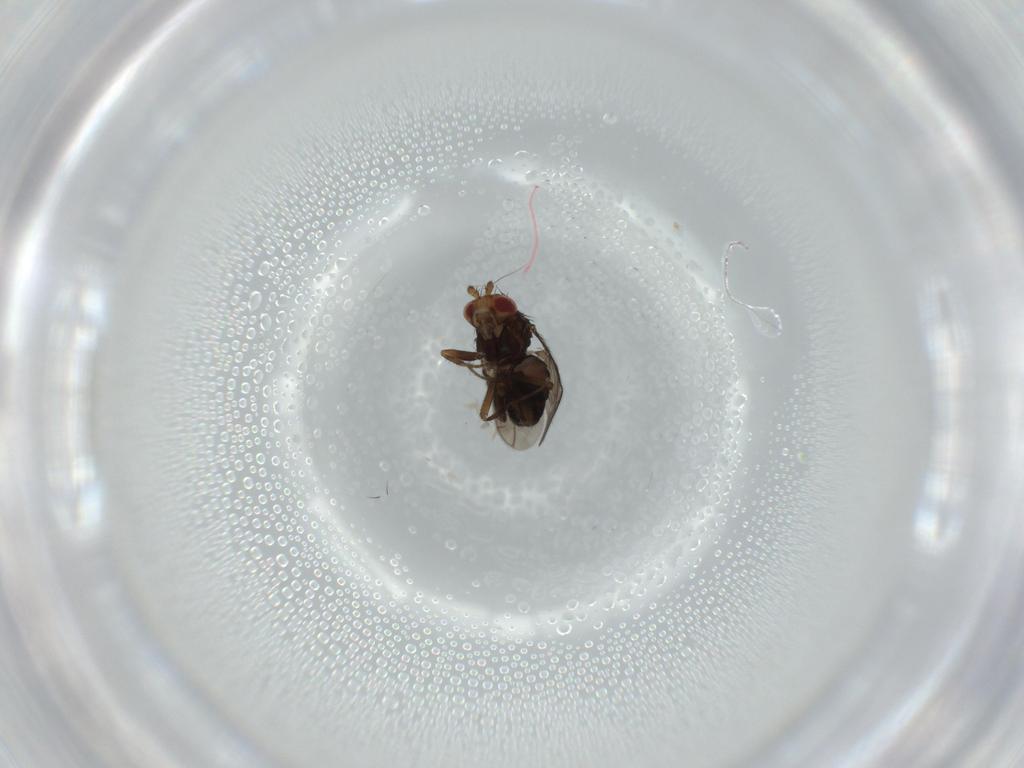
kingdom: Animalia
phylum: Arthropoda
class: Insecta
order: Diptera
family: Sphaeroceridae
